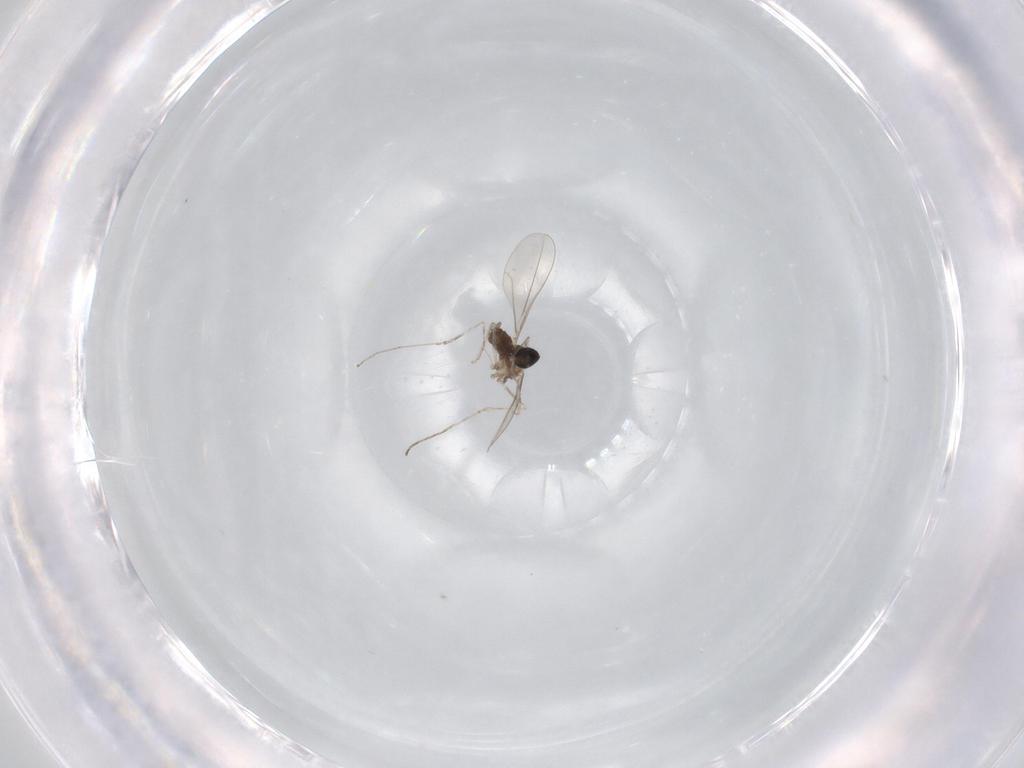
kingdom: Animalia
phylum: Arthropoda
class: Insecta
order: Diptera
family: Cecidomyiidae
